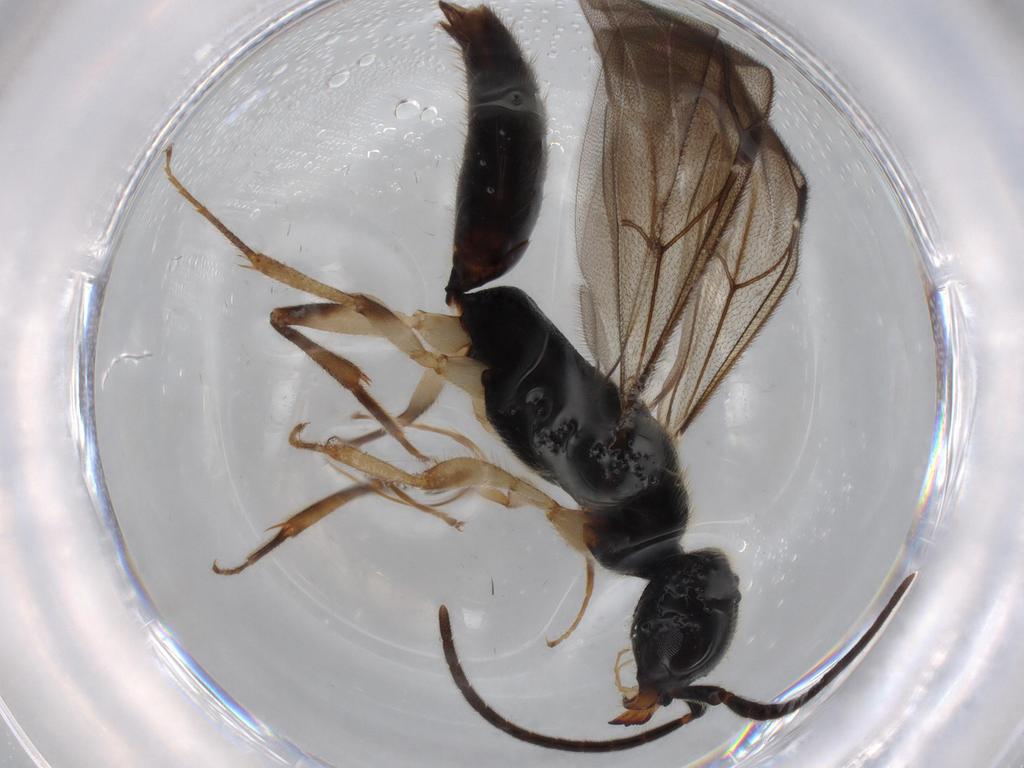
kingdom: Animalia
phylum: Arthropoda
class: Insecta
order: Hymenoptera
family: Bethylidae
